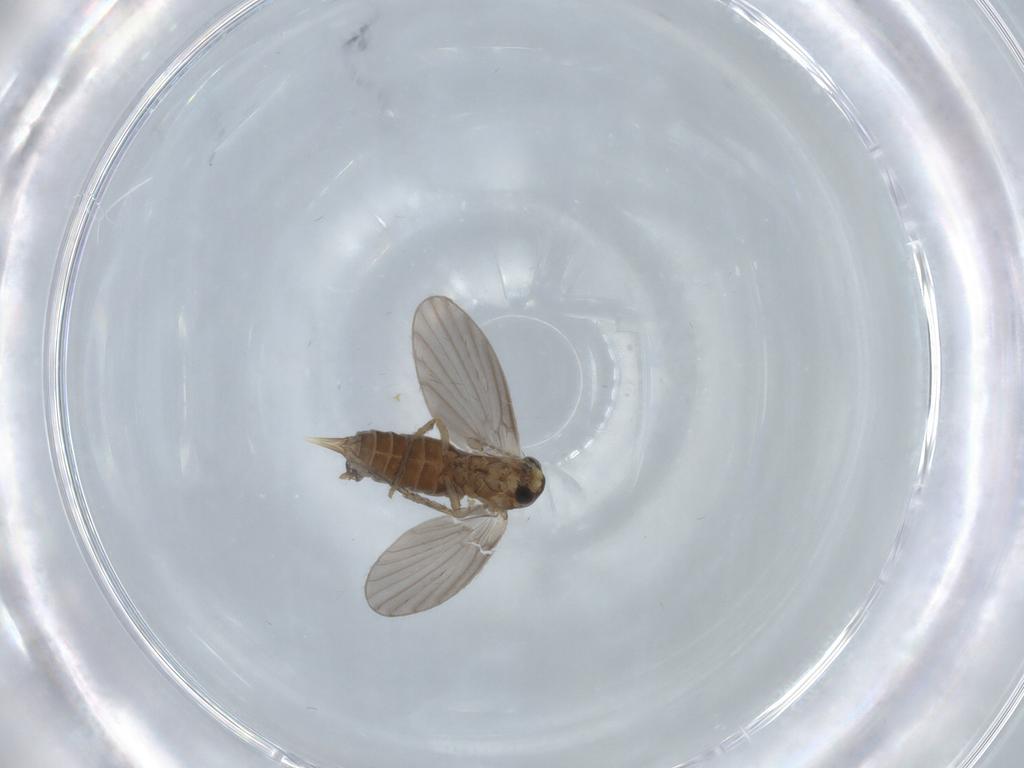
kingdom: Animalia
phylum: Arthropoda
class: Insecta
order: Diptera
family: Psychodidae
